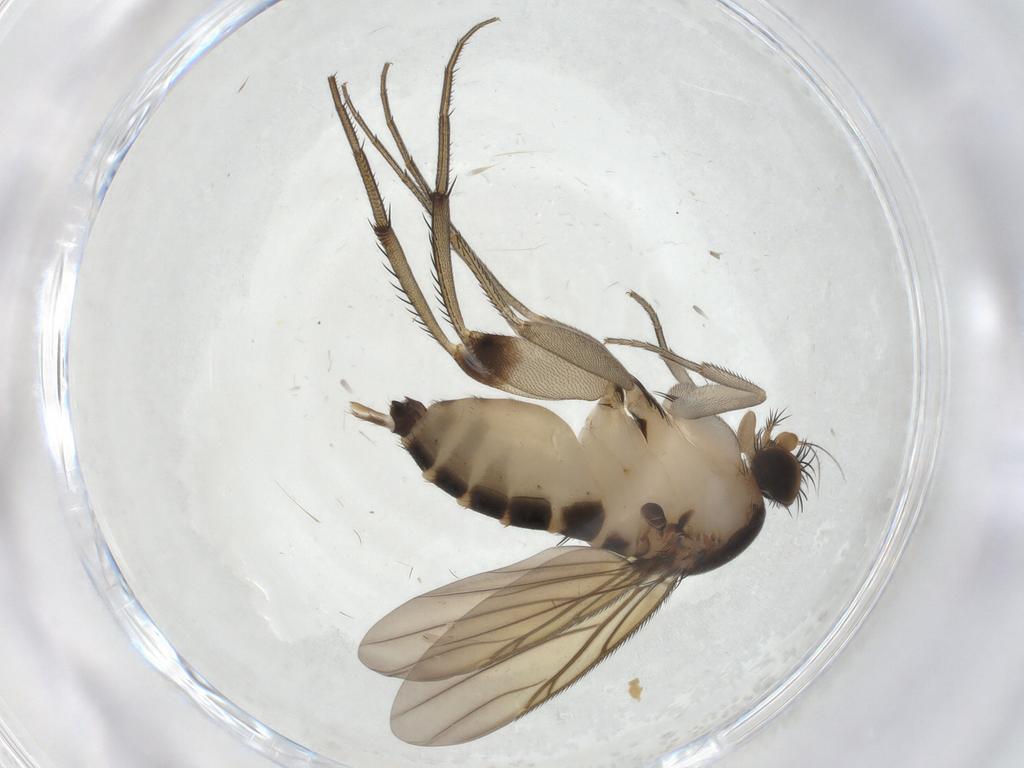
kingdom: Animalia
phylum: Arthropoda
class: Insecta
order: Diptera
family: Phoridae
